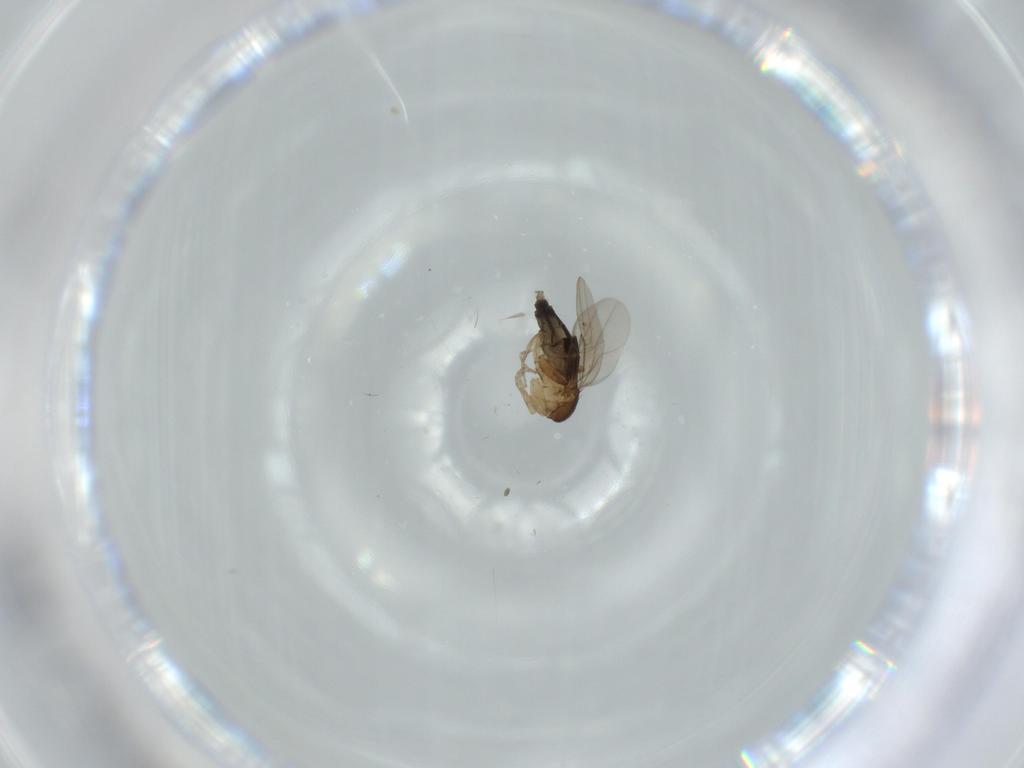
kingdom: Animalia
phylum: Arthropoda
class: Insecta
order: Diptera
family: Phoridae
